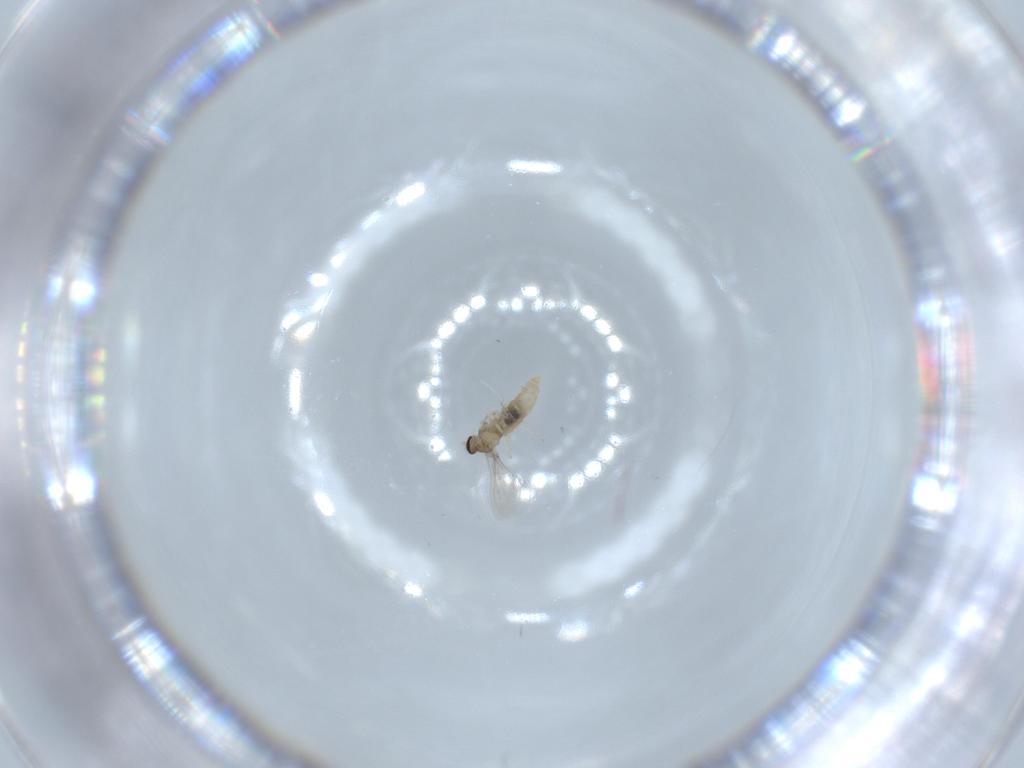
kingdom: Animalia
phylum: Arthropoda
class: Insecta
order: Diptera
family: Cecidomyiidae
